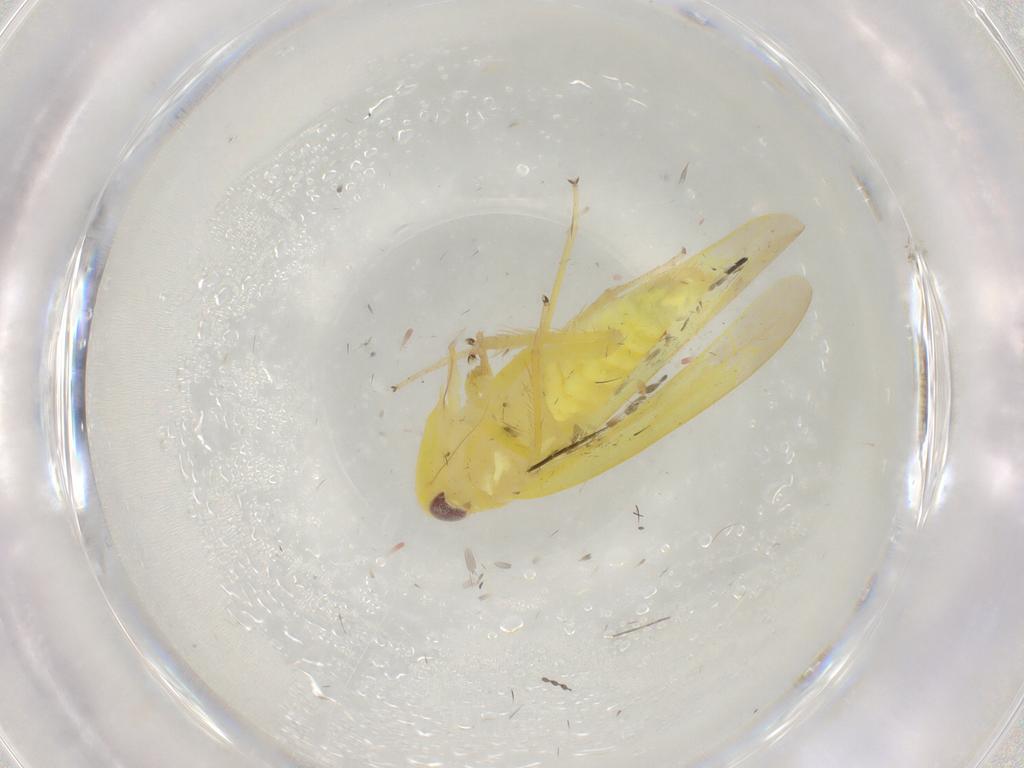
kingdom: Animalia
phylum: Arthropoda
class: Insecta
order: Hemiptera
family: Cicadellidae
